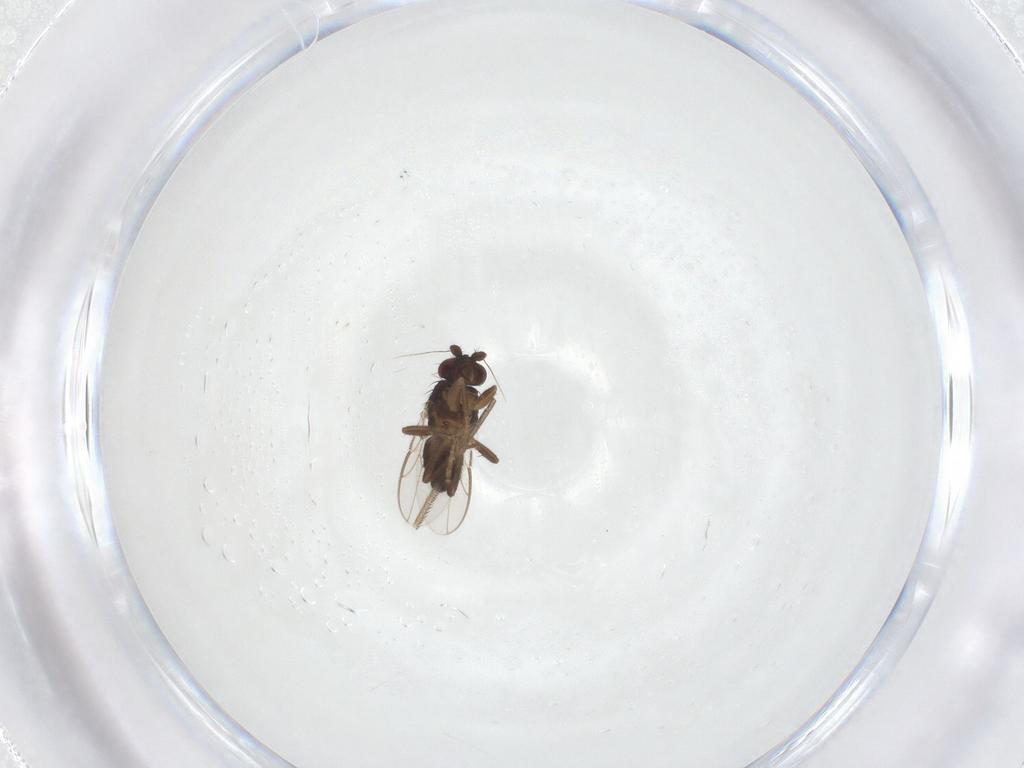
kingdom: Animalia
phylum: Arthropoda
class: Insecta
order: Diptera
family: Sphaeroceridae
